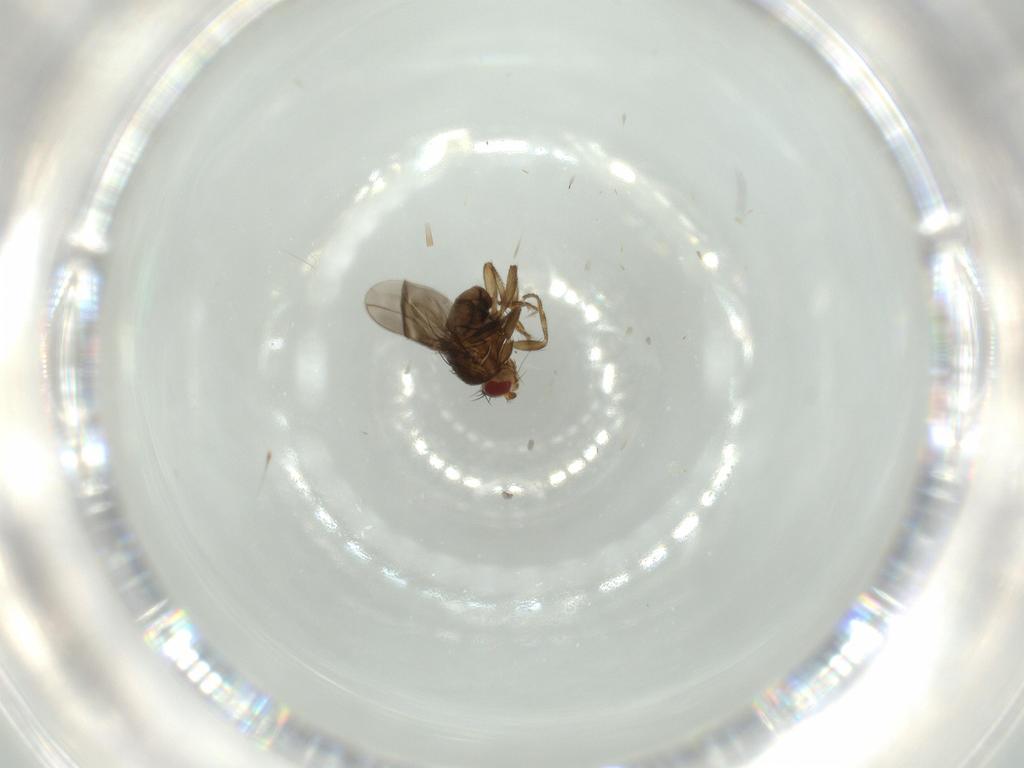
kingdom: Animalia
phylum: Arthropoda
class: Insecta
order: Diptera
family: Sphaeroceridae
